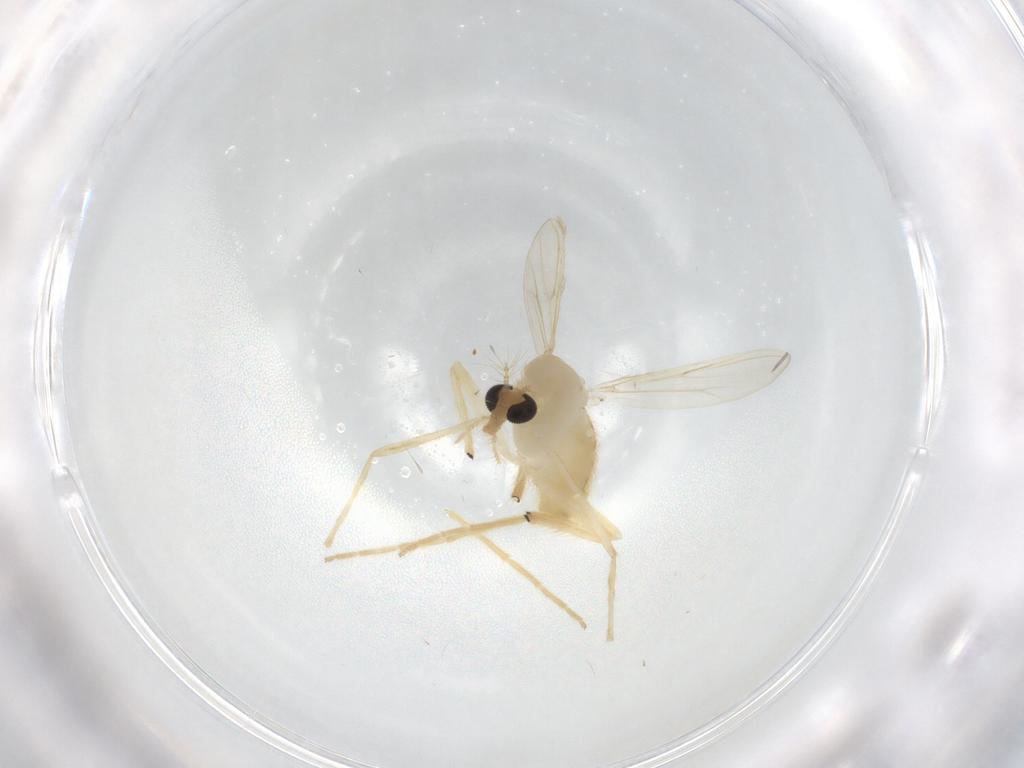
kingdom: Animalia
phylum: Arthropoda
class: Insecta
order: Diptera
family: Chironomidae
